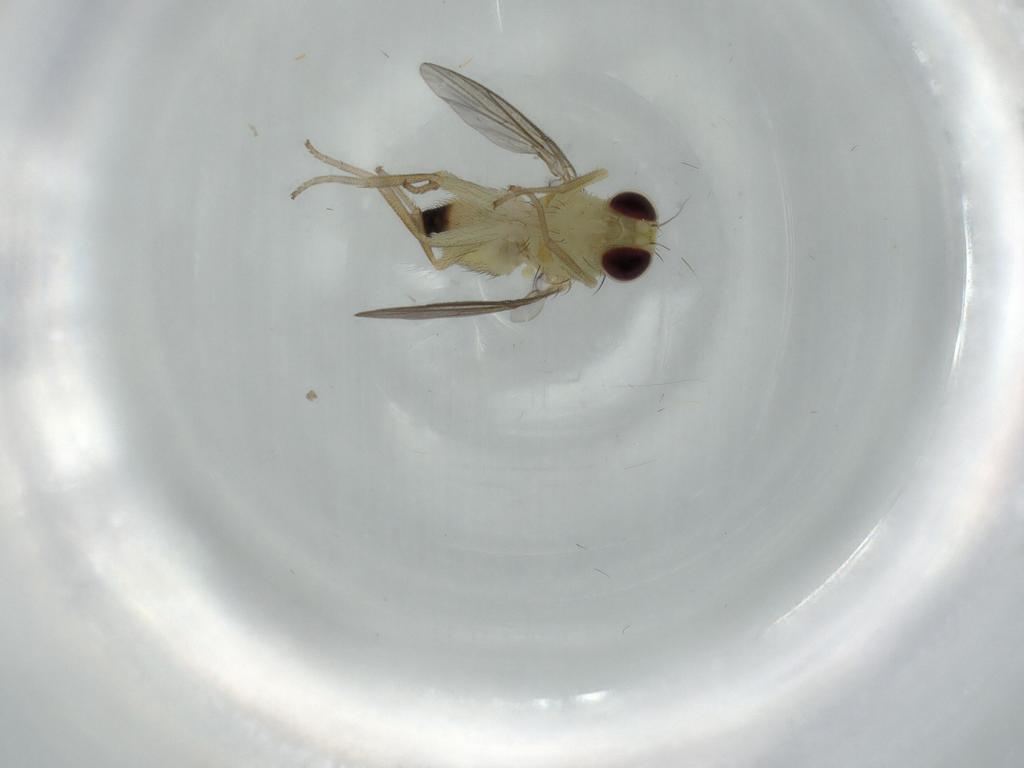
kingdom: Animalia
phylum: Arthropoda
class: Insecta
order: Diptera
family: Agromyzidae
